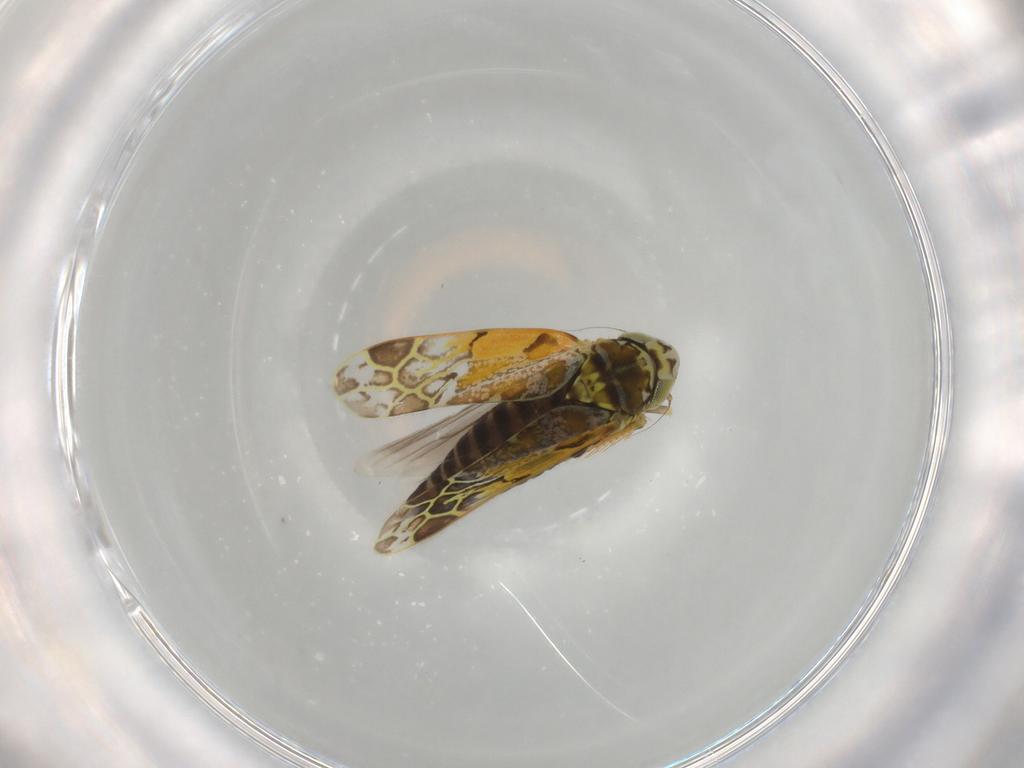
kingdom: Animalia
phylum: Arthropoda
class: Insecta
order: Hemiptera
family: Cicadellidae
